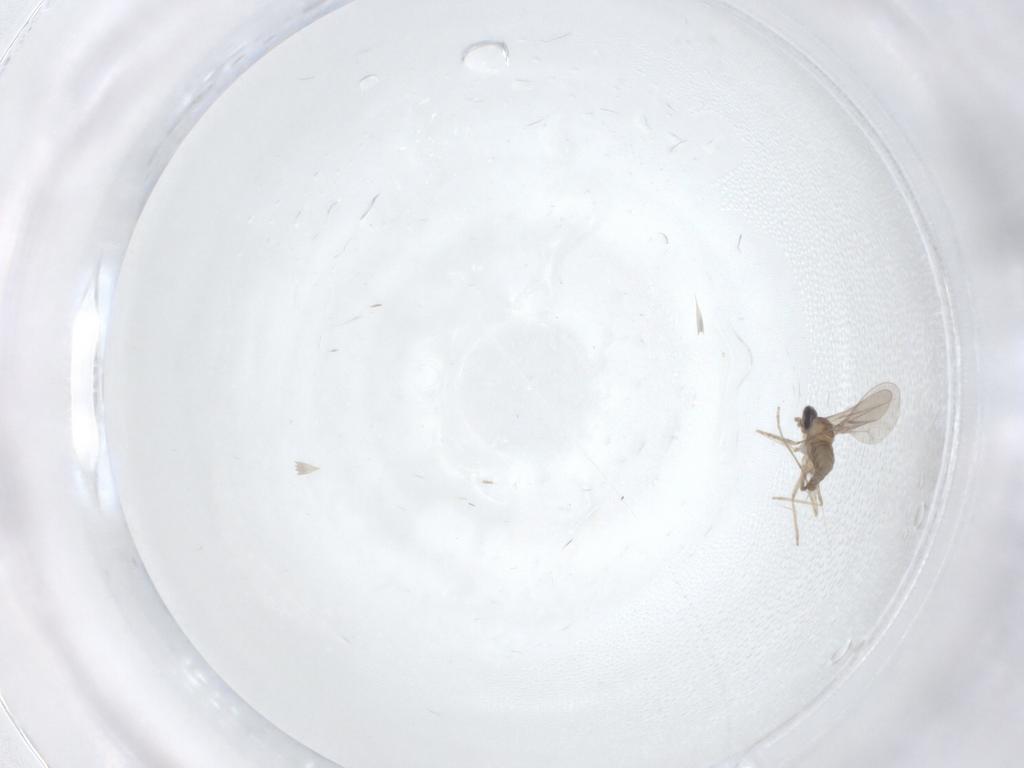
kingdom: Animalia
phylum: Arthropoda
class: Insecta
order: Diptera
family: Cecidomyiidae
